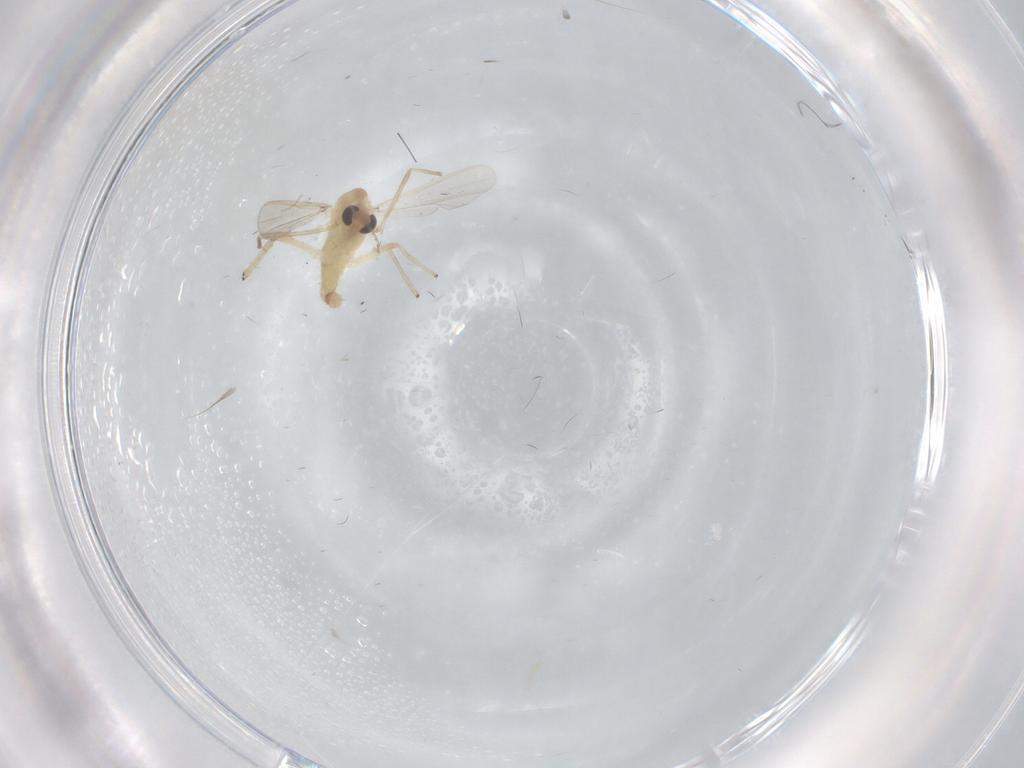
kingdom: Animalia
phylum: Arthropoda
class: Insecta
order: Diptera
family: Chironomidae
